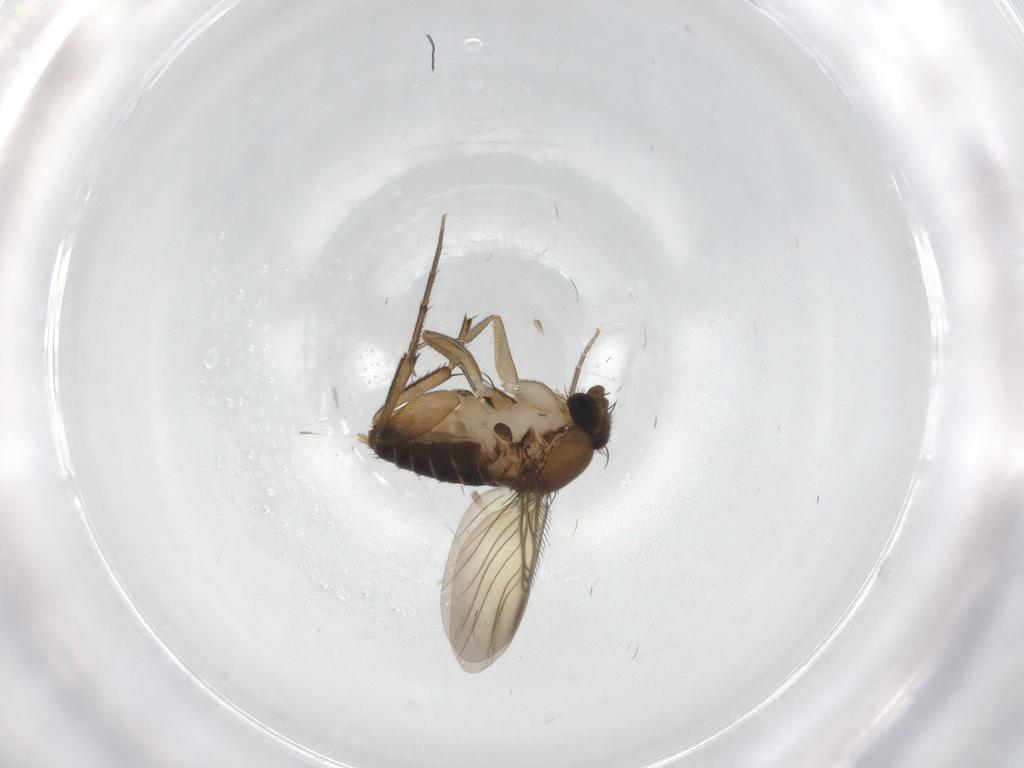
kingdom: Animalia
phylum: Arthropoda
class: Insecta
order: Diptera
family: Phoridae
